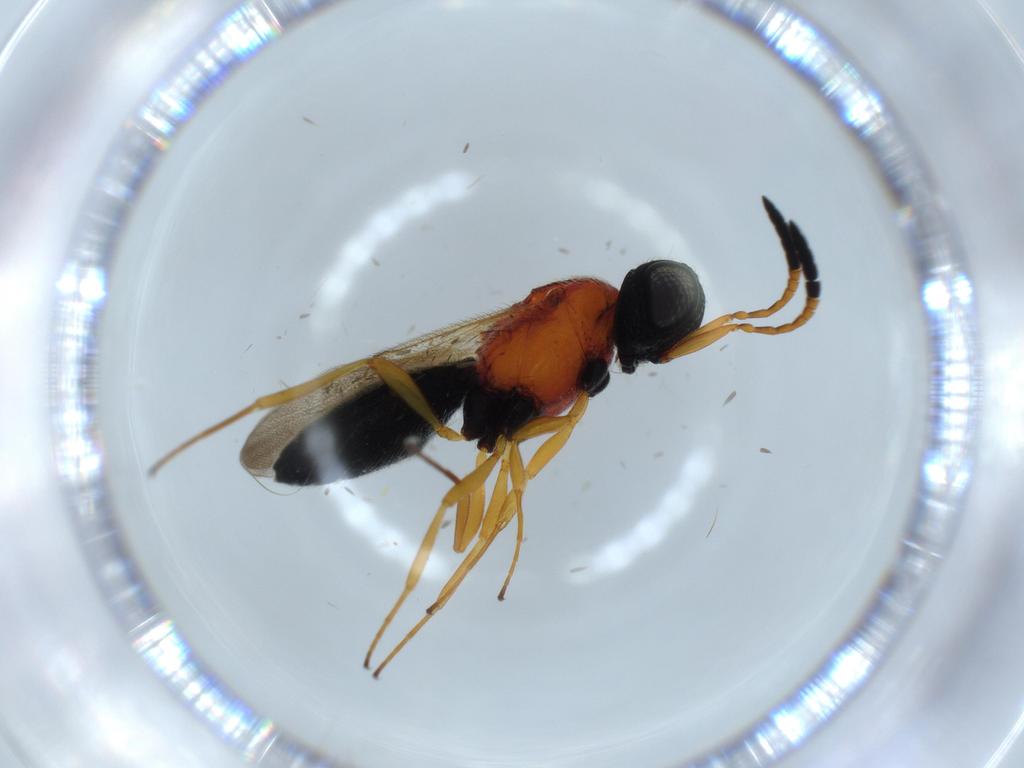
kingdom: Animalia
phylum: Arthropoda
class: Insecta
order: Hymenoptera
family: Scelionidae
